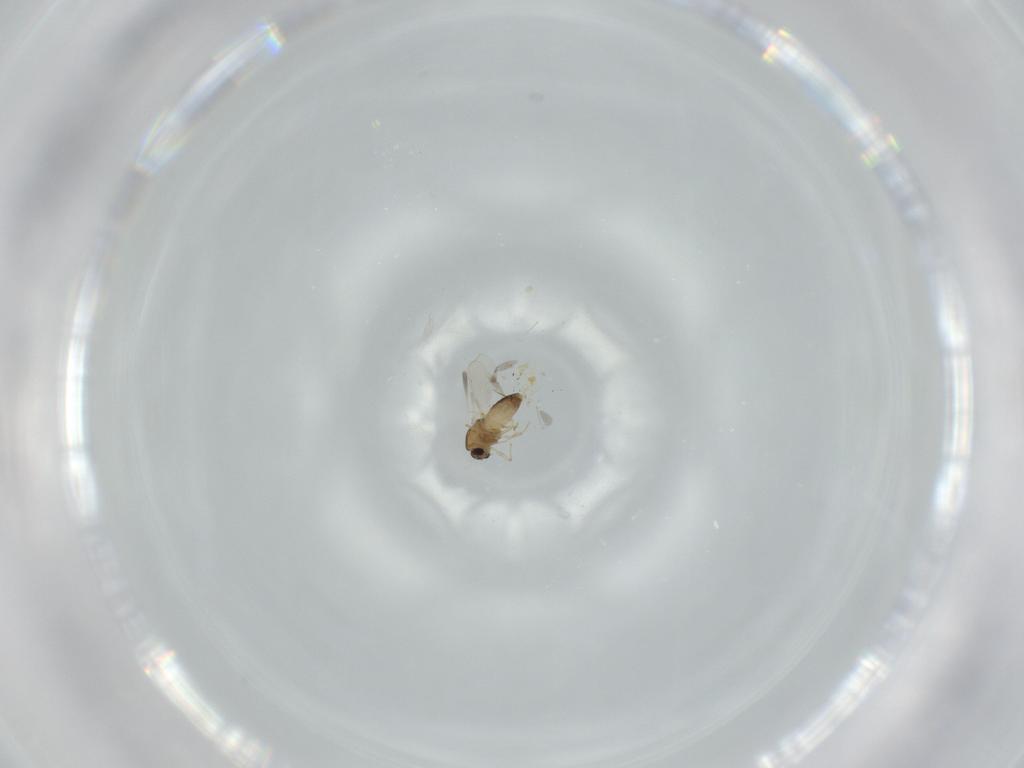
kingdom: Animalia
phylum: Arthropoda
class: Insecta
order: Diptera
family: Chironomidae
